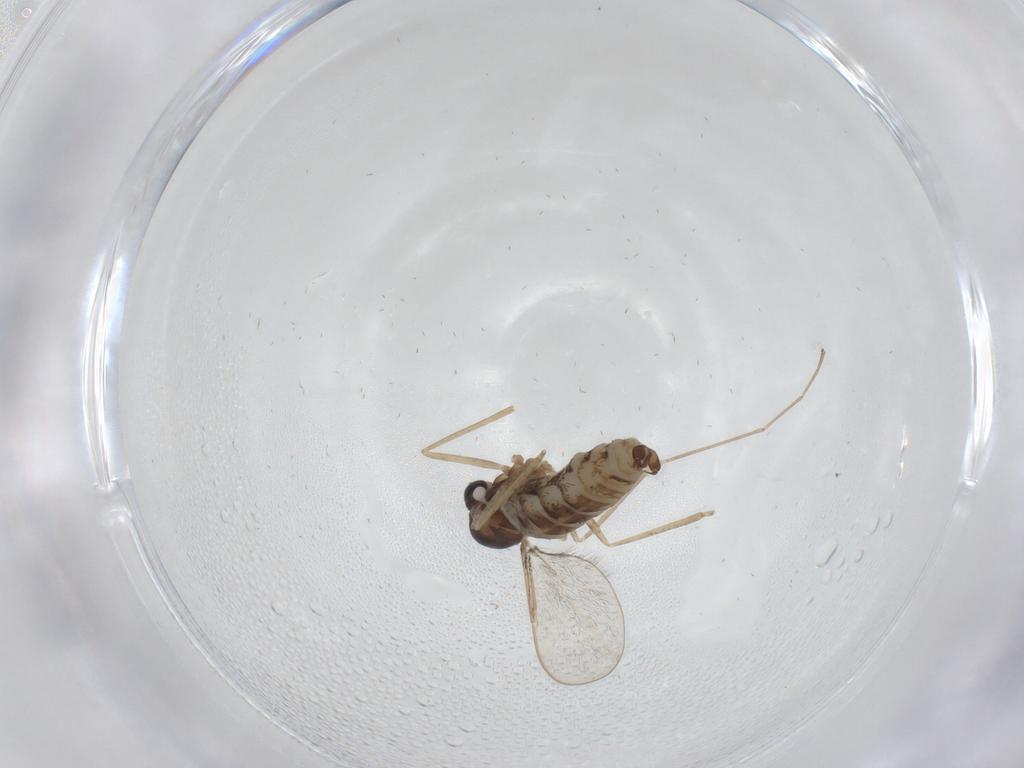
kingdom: Animalia
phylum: Arthropoda
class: Insecta
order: Diptera
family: Cecidomyiidae
